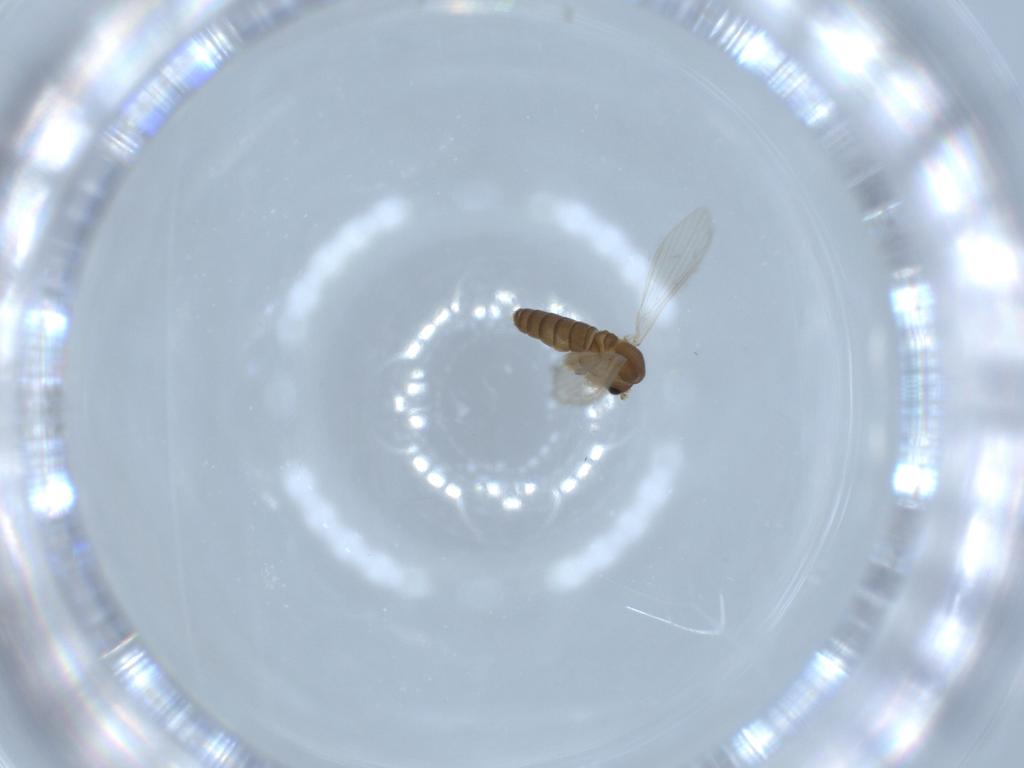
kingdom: Animalia
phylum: Arthropoda
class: Insecta
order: Diptera
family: Psychodidae
